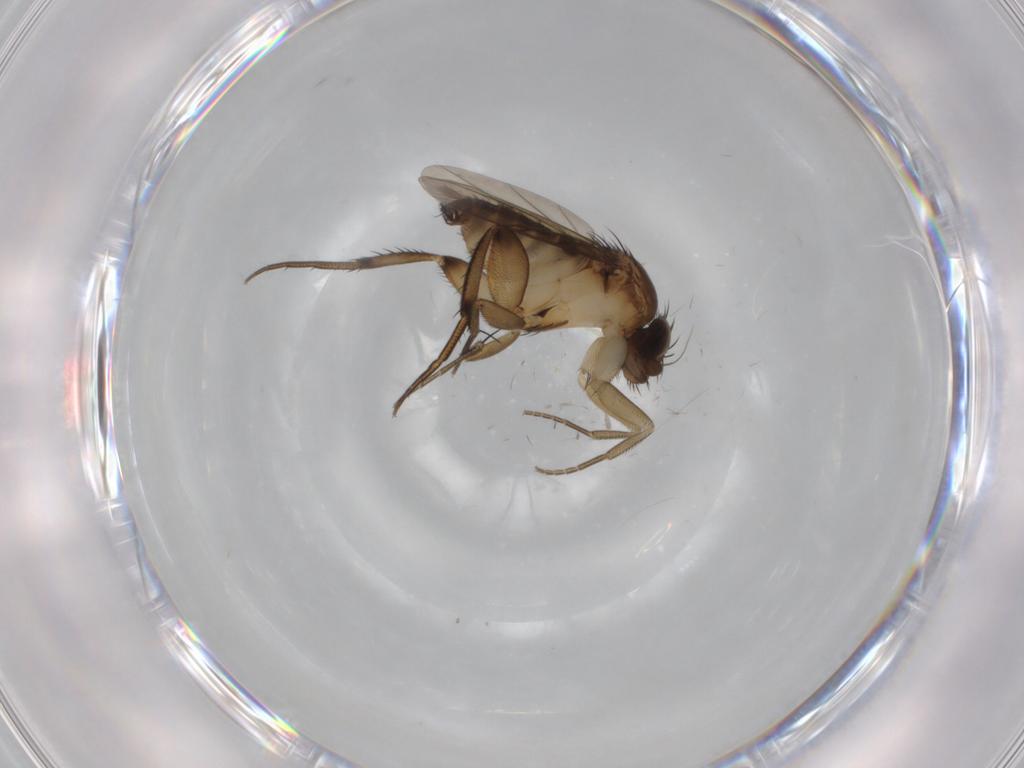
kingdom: Animalia
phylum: Arthropoda
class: Insecta
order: Diptera
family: Phoridae
